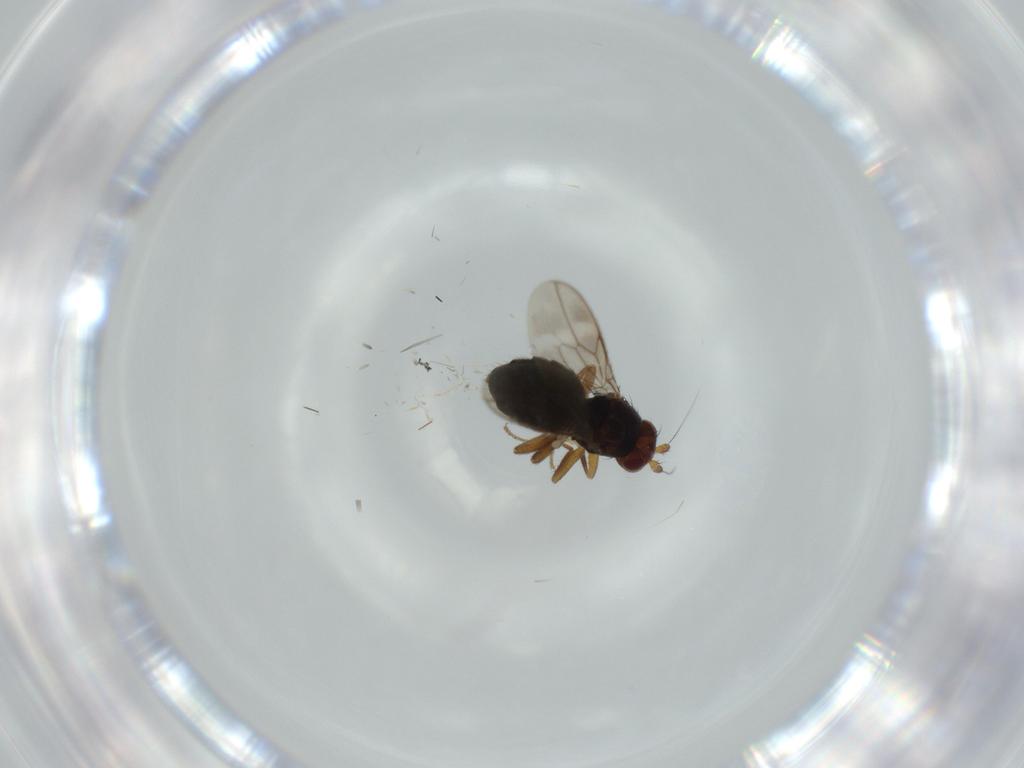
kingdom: Animalia
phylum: Arthropoda
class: Insecta
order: Diptera
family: Sphaeroceridae
